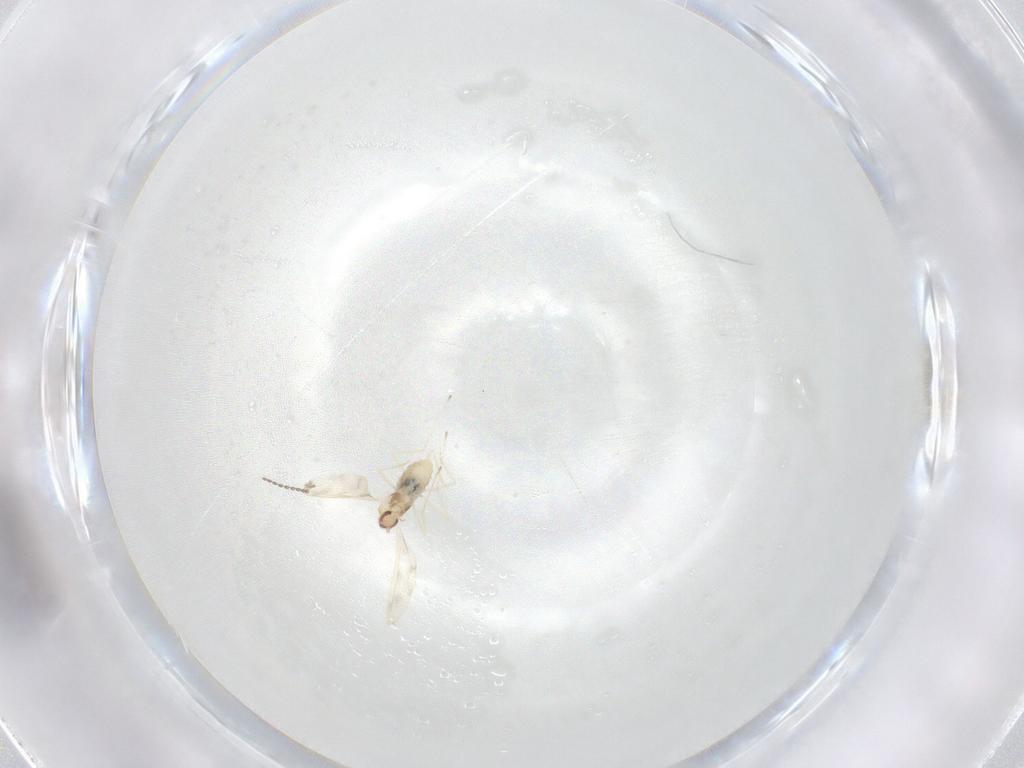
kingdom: Animalia
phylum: Arthropoda
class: Insecta
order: Diptera
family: Cecidomyiidae
